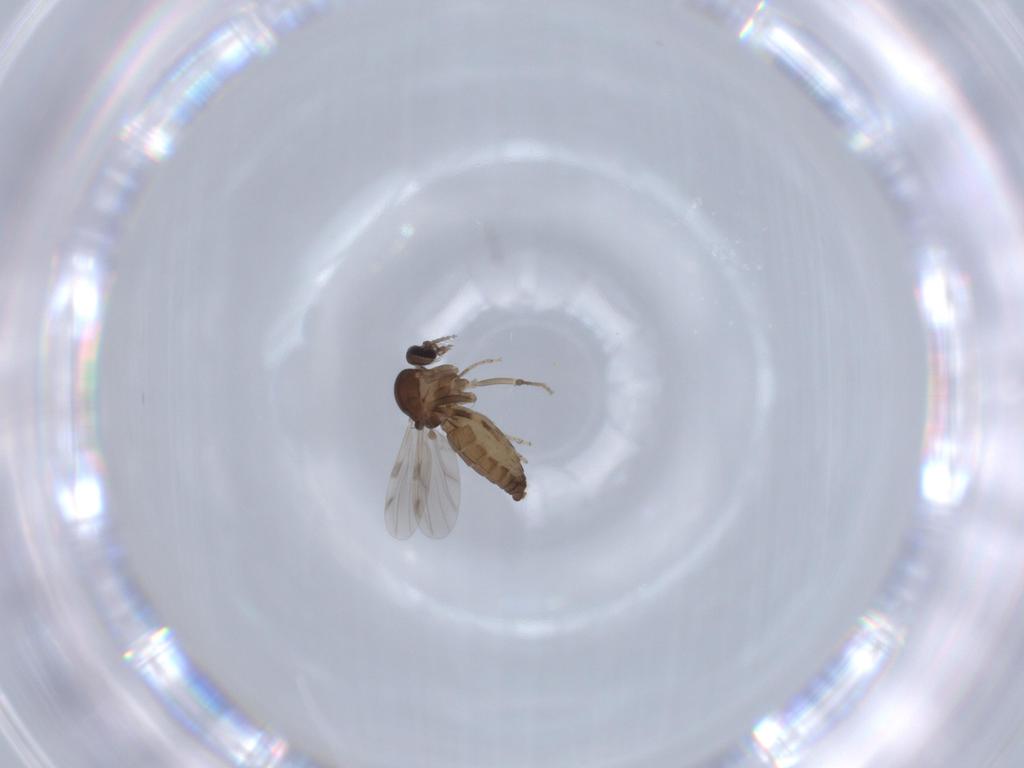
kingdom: Animalia
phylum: Arthropoda
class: Insecta
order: Diptera
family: Ceratopogonidae
